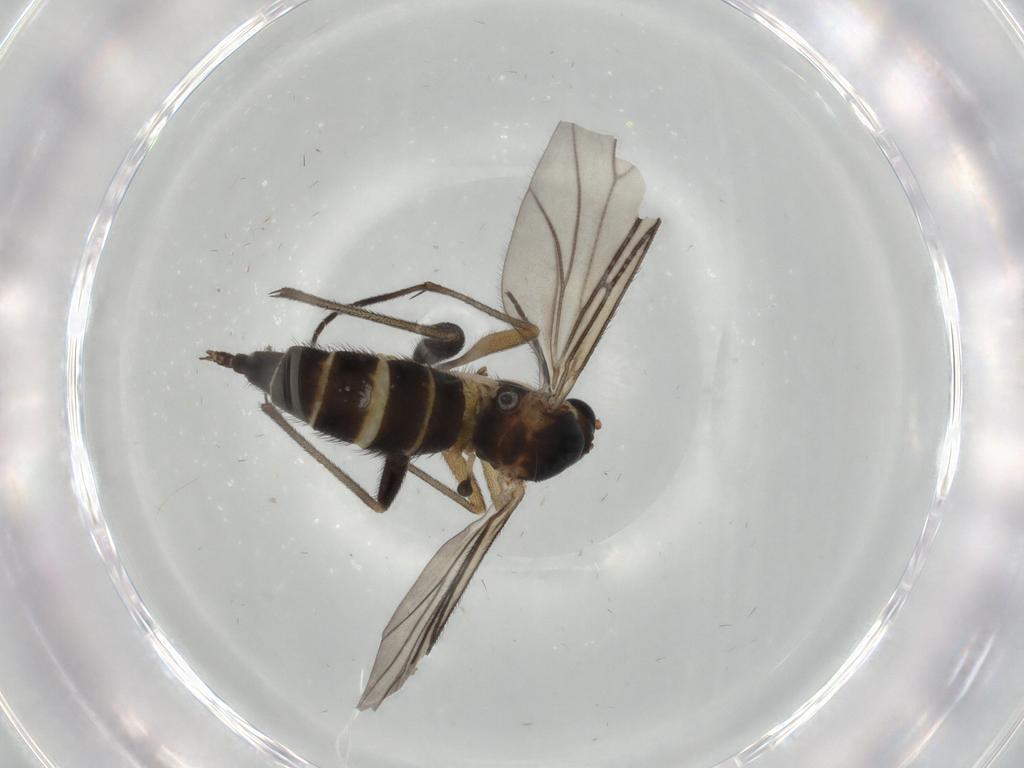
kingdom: Animalia
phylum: Arthropoda
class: Insecta
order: Diptera
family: Sciaridae
